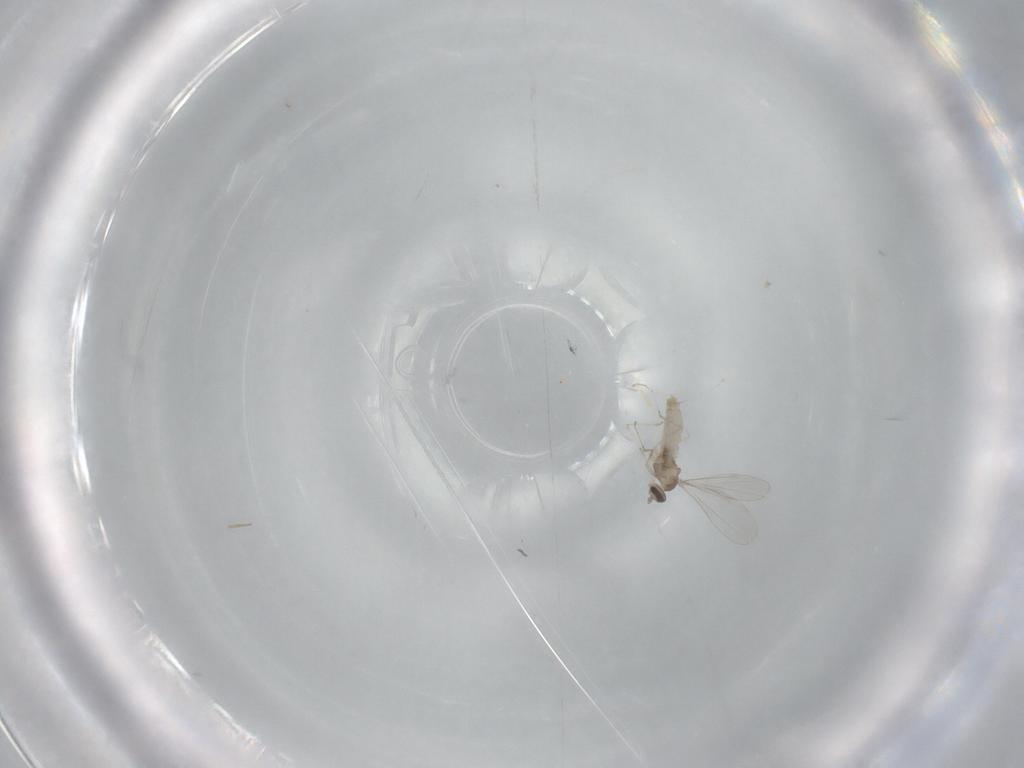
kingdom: Animalia
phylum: Arthropoda
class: Insecta
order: Diptera
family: Cecidomyiidae
